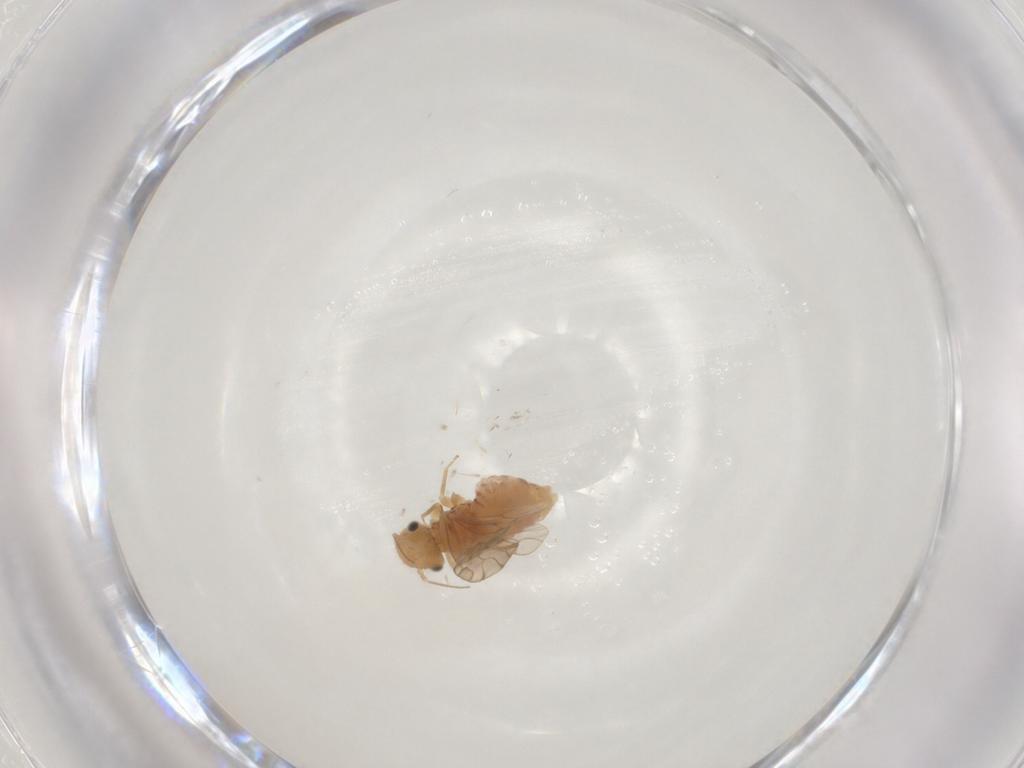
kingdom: Animalia
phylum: Arthropoda
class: Insecta
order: Psocodea
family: Ectopsocidae
